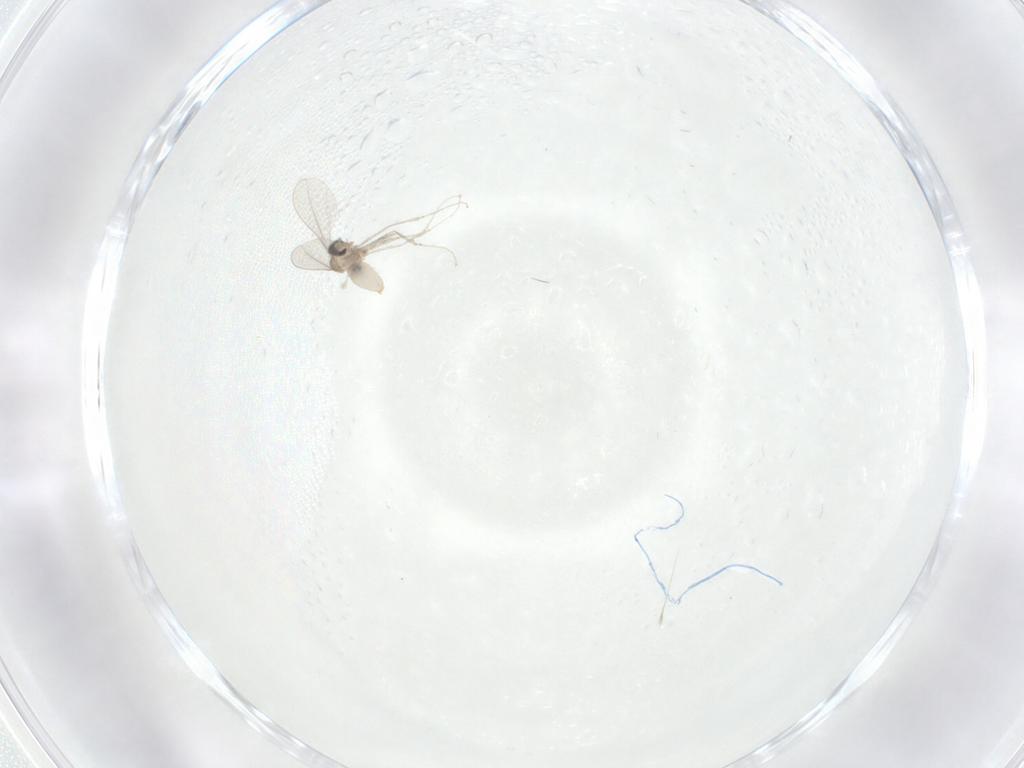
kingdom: Animalia
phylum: Arthropoda
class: Insecta
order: Diptera
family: Cecidomyiidae
